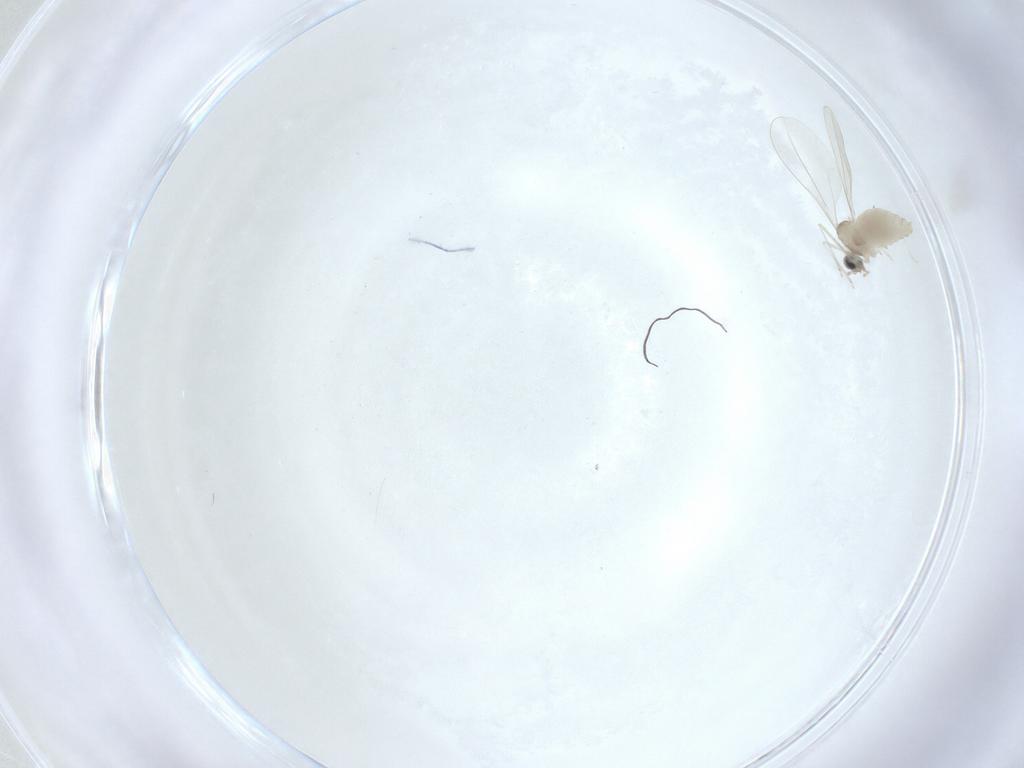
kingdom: Animalia
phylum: Arthropoda
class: Insecta
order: Diptera
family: Cecidomyiidae
